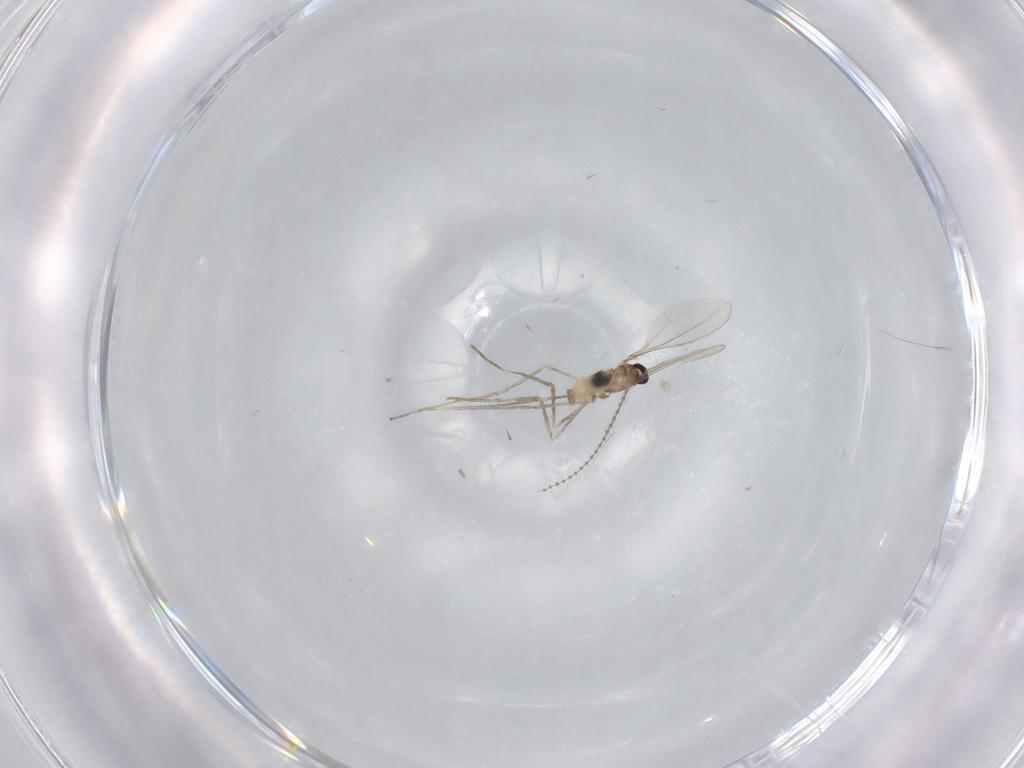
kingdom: Animalia
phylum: Arthropoda
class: Insecta
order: Diptera
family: Cecidomyiidae
